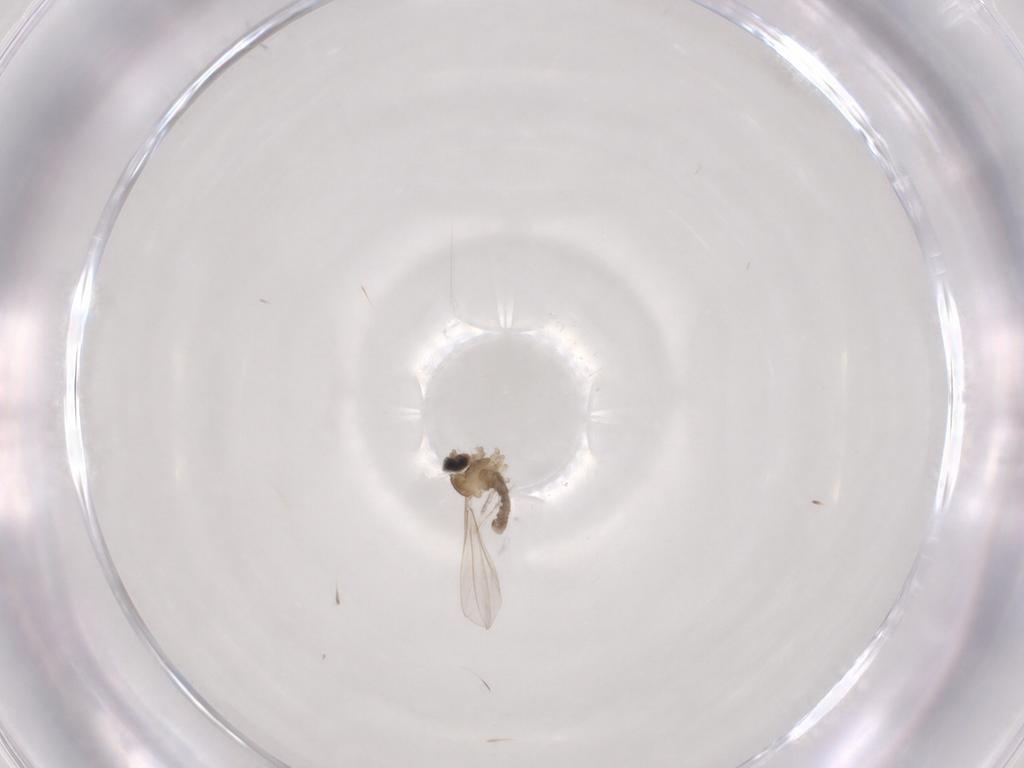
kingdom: Animalia
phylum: Arthropoda
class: Insecta
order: Diptera
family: Cecidomyiidae
